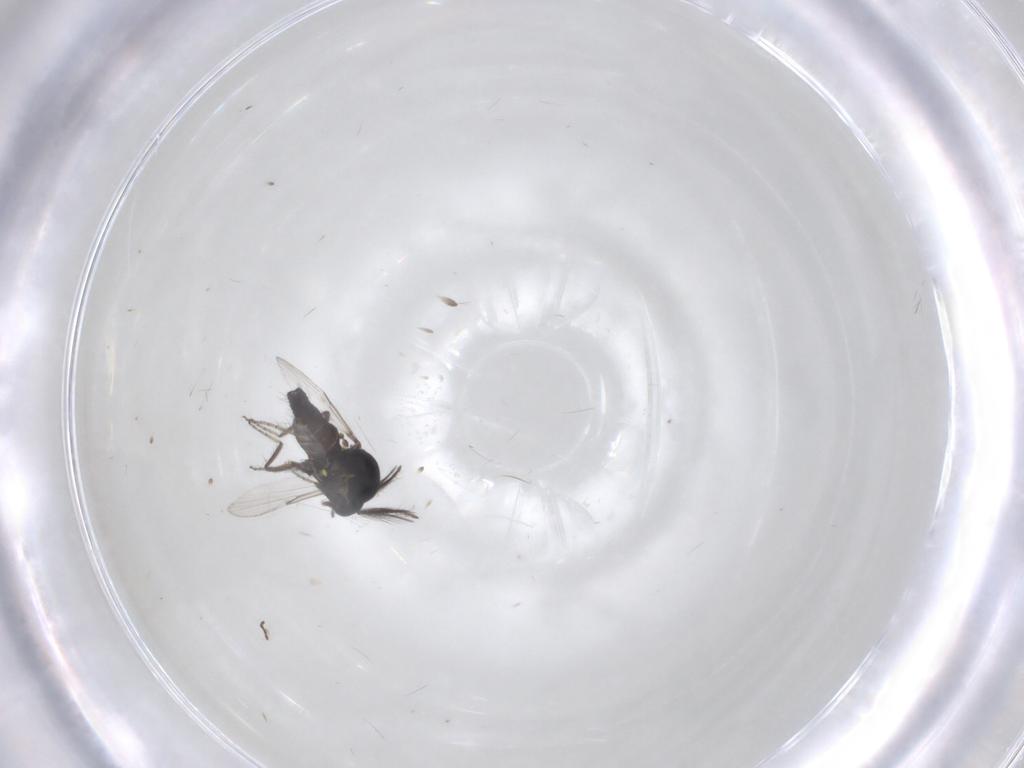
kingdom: Animalia
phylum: Arthropoda
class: Insecta
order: Diptera
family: Ceratopogonidae
